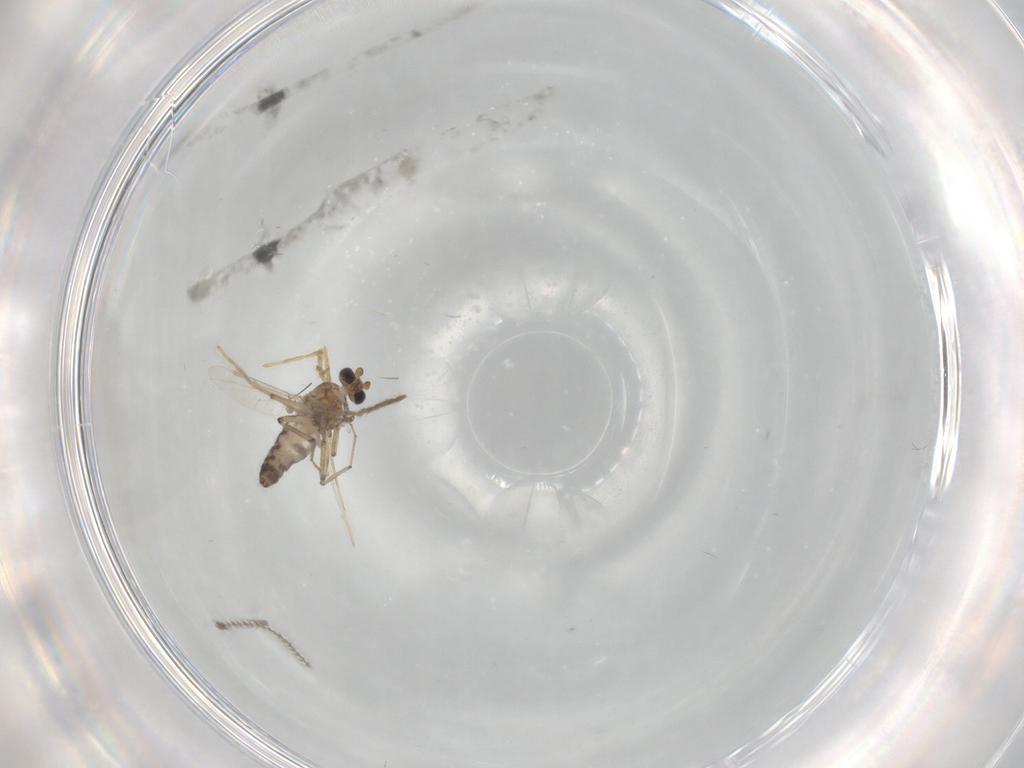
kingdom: Animalia
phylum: Arthropoda
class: Insecta
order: Diptera
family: Ceratopogonidae
